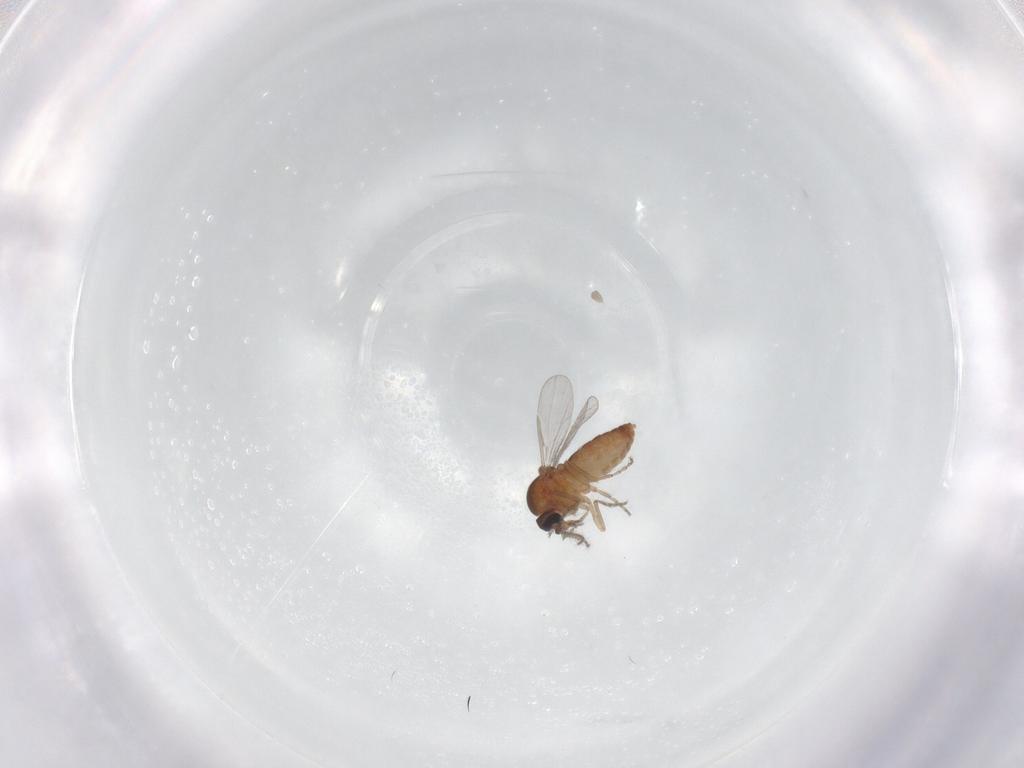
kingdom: Animalia
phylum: Arthropoda
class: Insecta
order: Diptera
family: Ceratopogonidae
